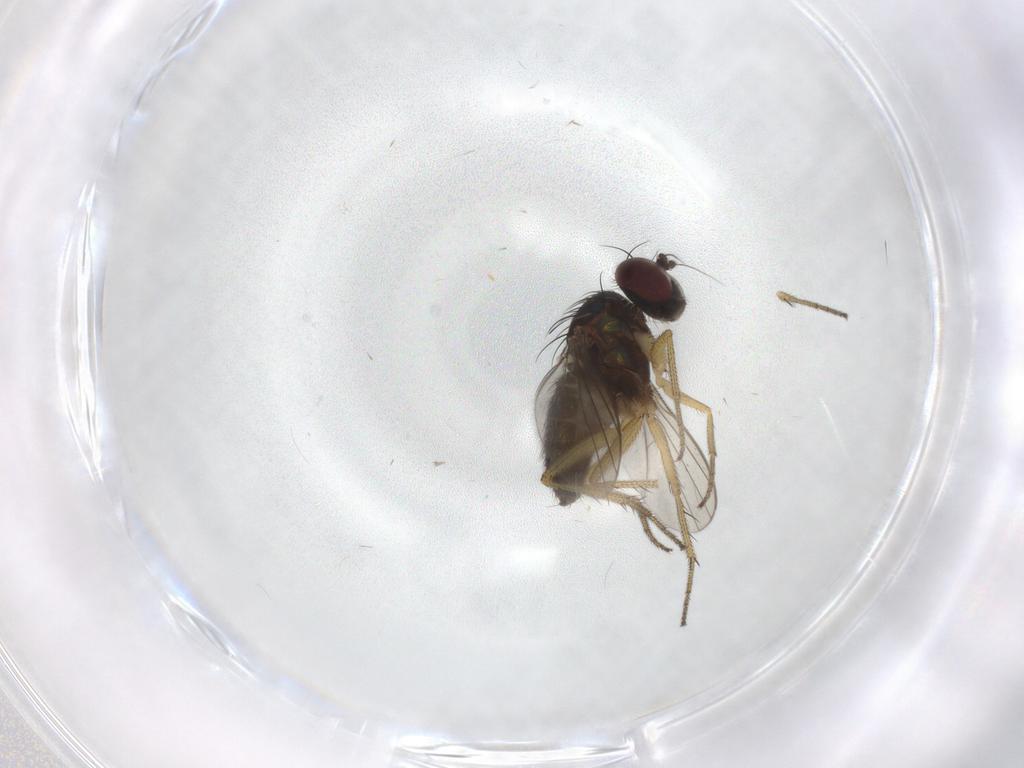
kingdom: Animalia
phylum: Arthropoda
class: Insecta
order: Diptera
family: Dolichopodidae
